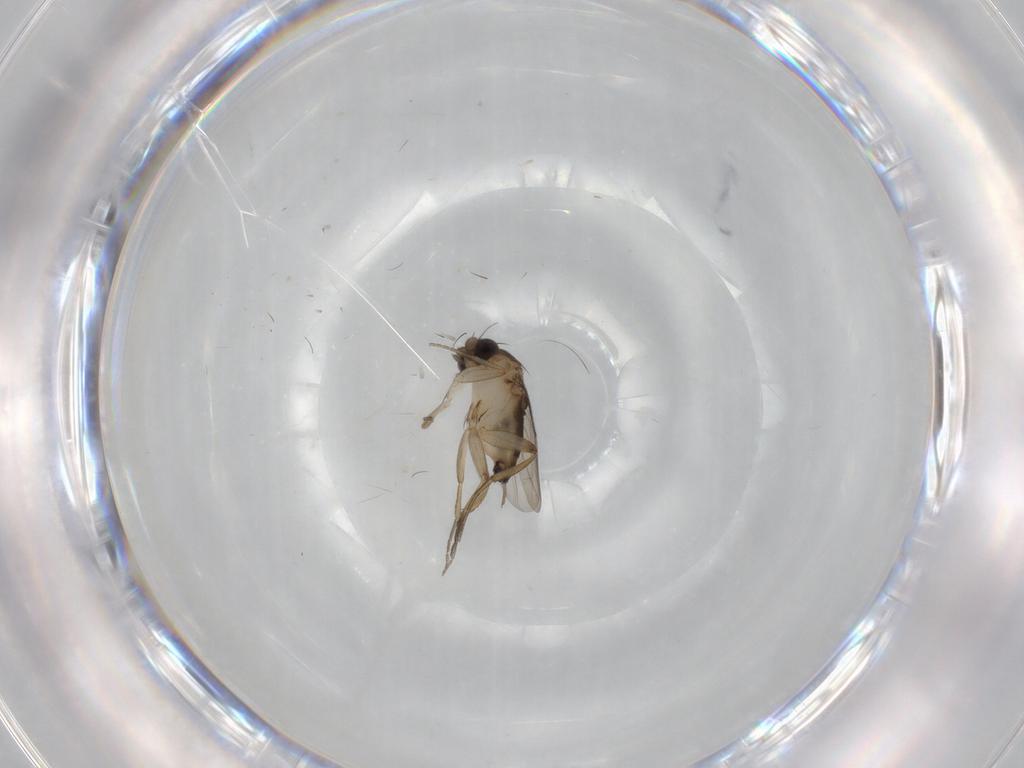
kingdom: Animalia
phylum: Arthropoda
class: Insecta
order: Diptera
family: Phoridae
